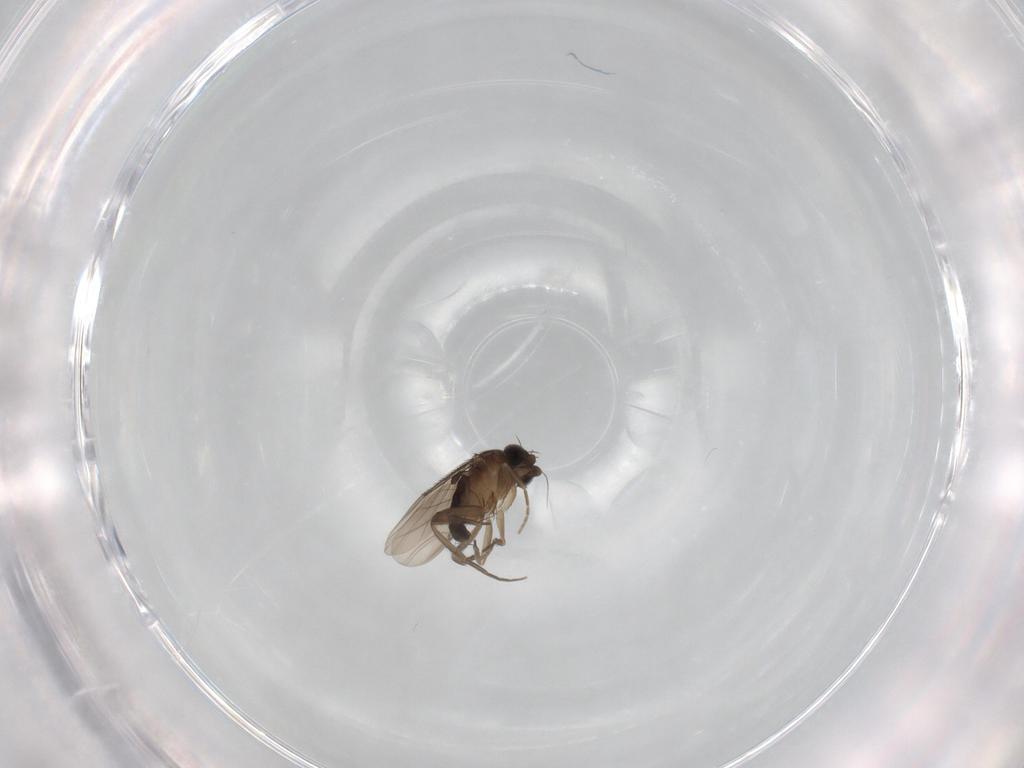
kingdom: Animalia
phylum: Arthropoda
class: Insecta
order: Diptera
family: Phoridae
